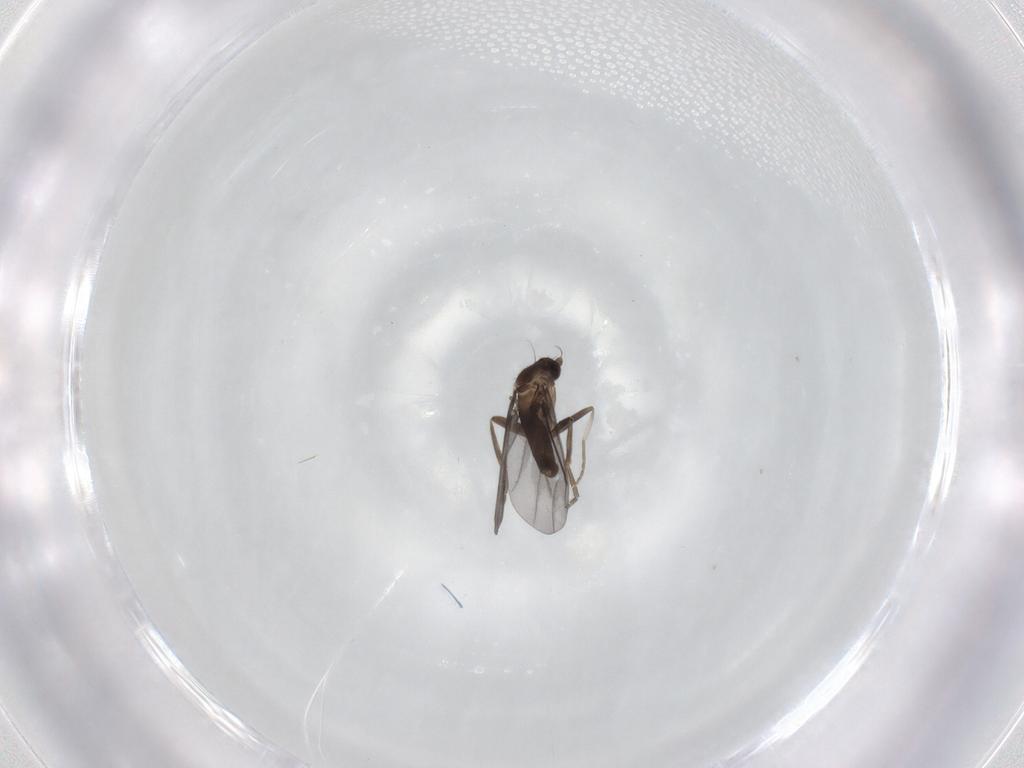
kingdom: Animalia
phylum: Arthropoda
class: Insecta
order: Diptera
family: Phoridae
